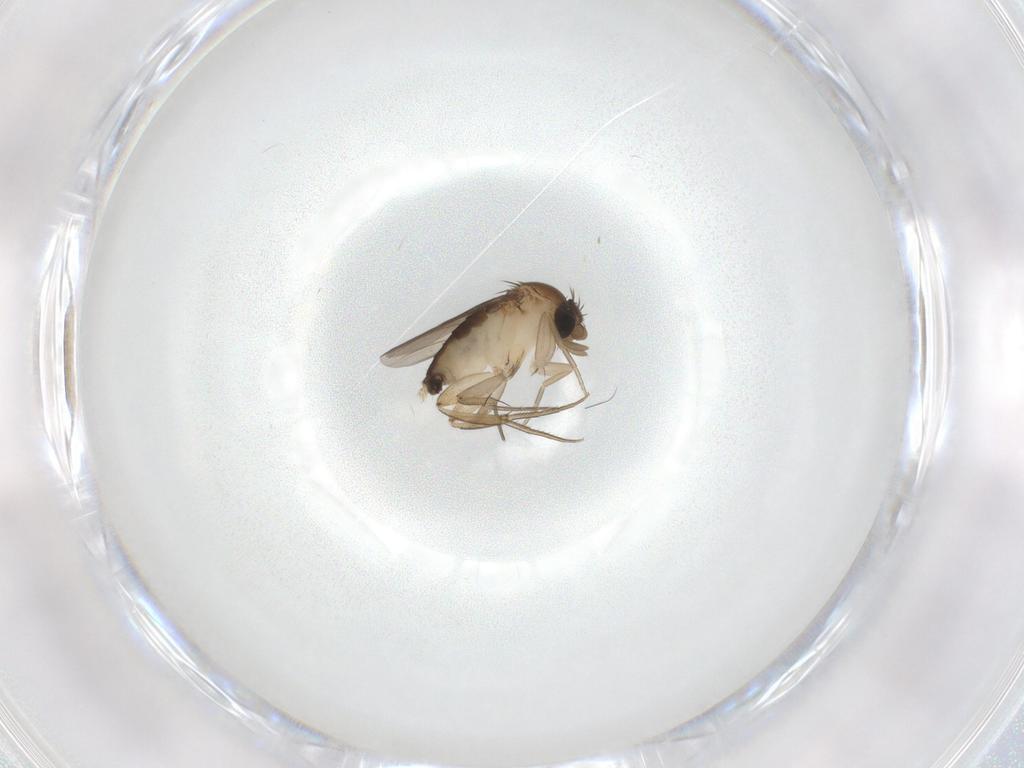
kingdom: Animalia
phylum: Arthropoda
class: Insecta
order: Diptera
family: Phoridae
